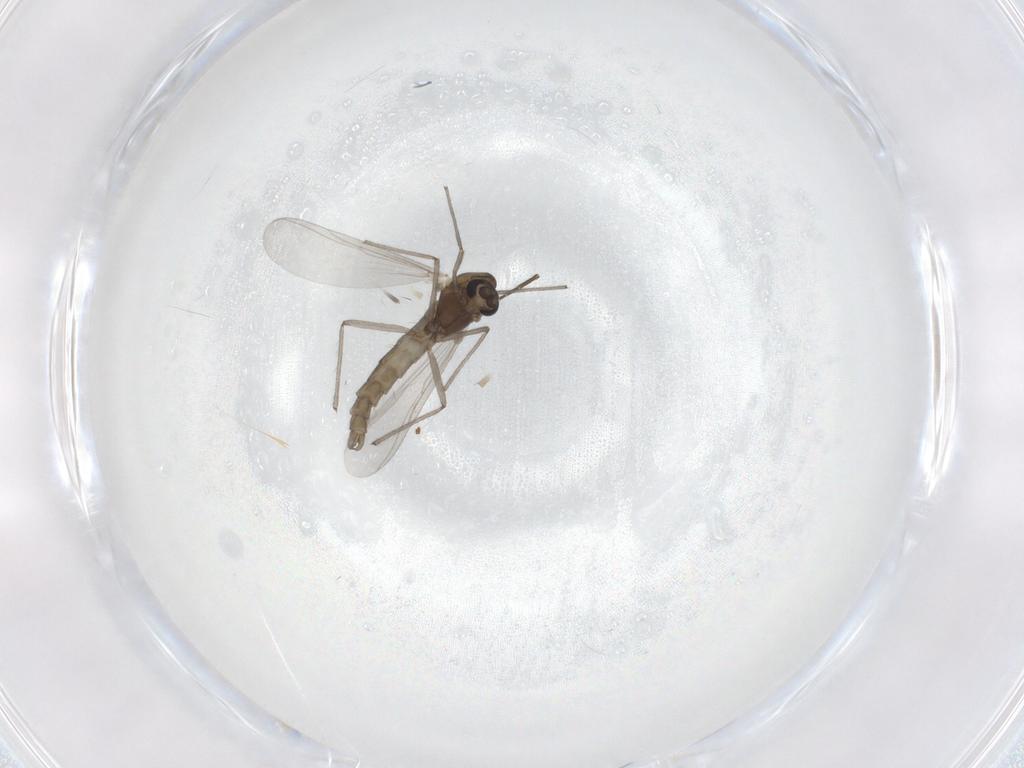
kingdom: Animalia
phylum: Arthropoda
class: Insecta
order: Diptera
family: Chironomidae
